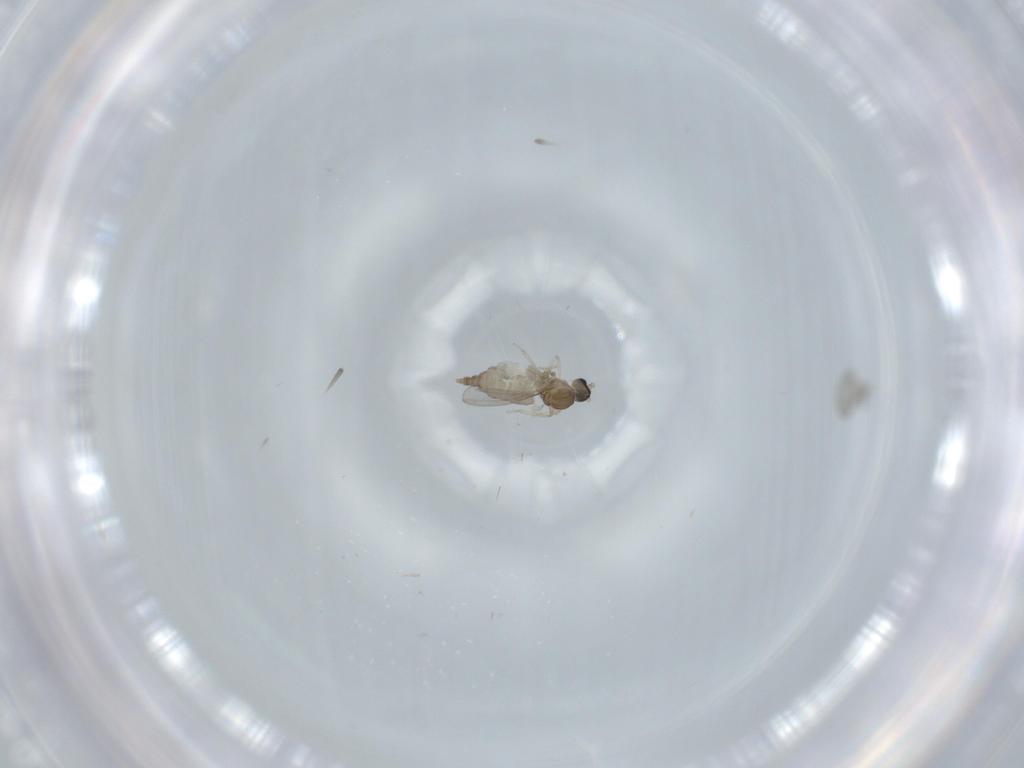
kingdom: Animalia
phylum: Arthropoda
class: Insecta
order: Diptera
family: Cecidomyiidae
